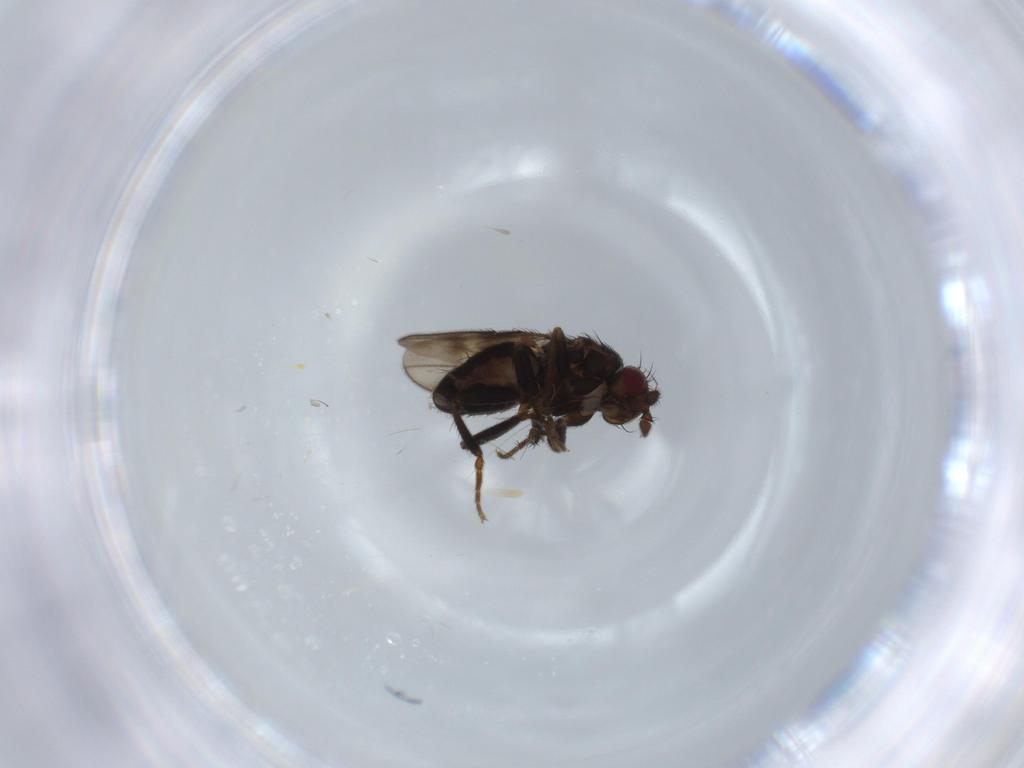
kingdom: Animalia
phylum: Arthropoda
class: Insecta
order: Diptera
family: Sphaeroceridae
